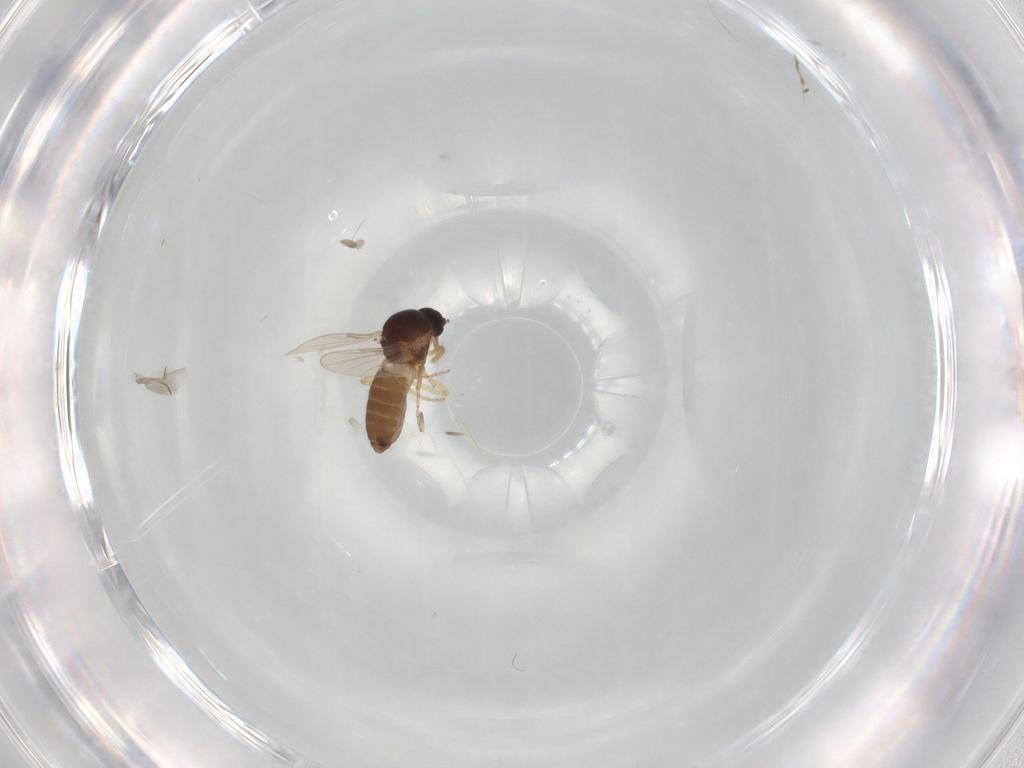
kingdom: Animalia
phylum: Arthropoda
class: Insecta
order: Diptera
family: Ceratopogonidae
